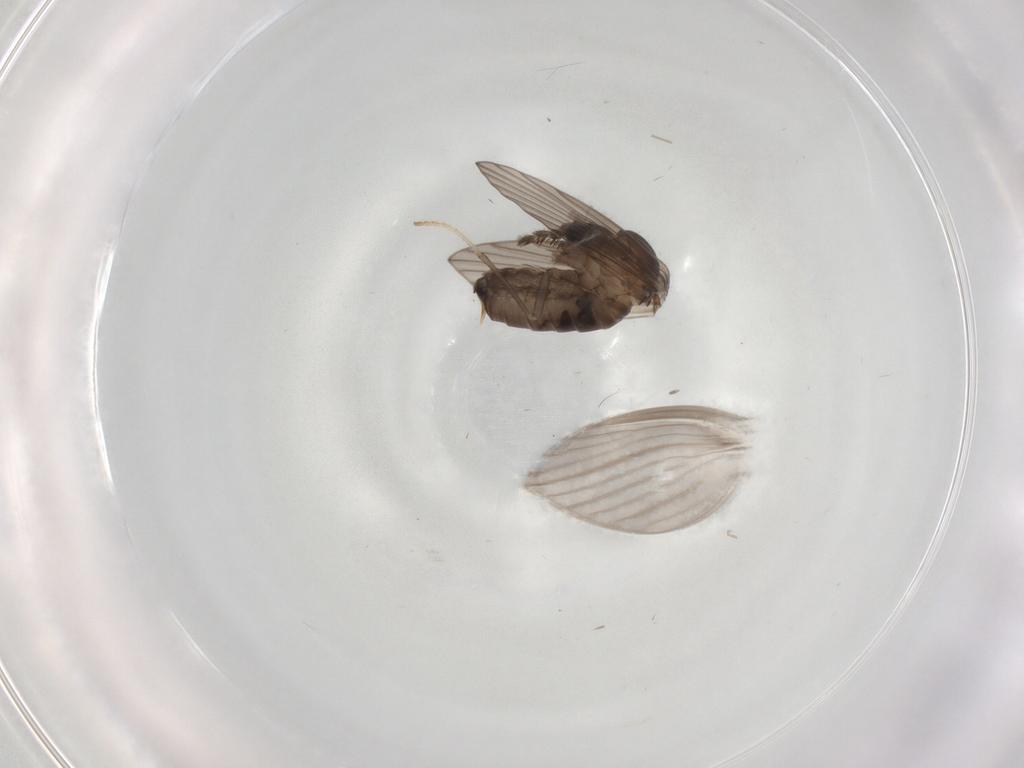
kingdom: Animalia
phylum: Arthropoda
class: Insecta
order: Diptera
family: Psychodidae
